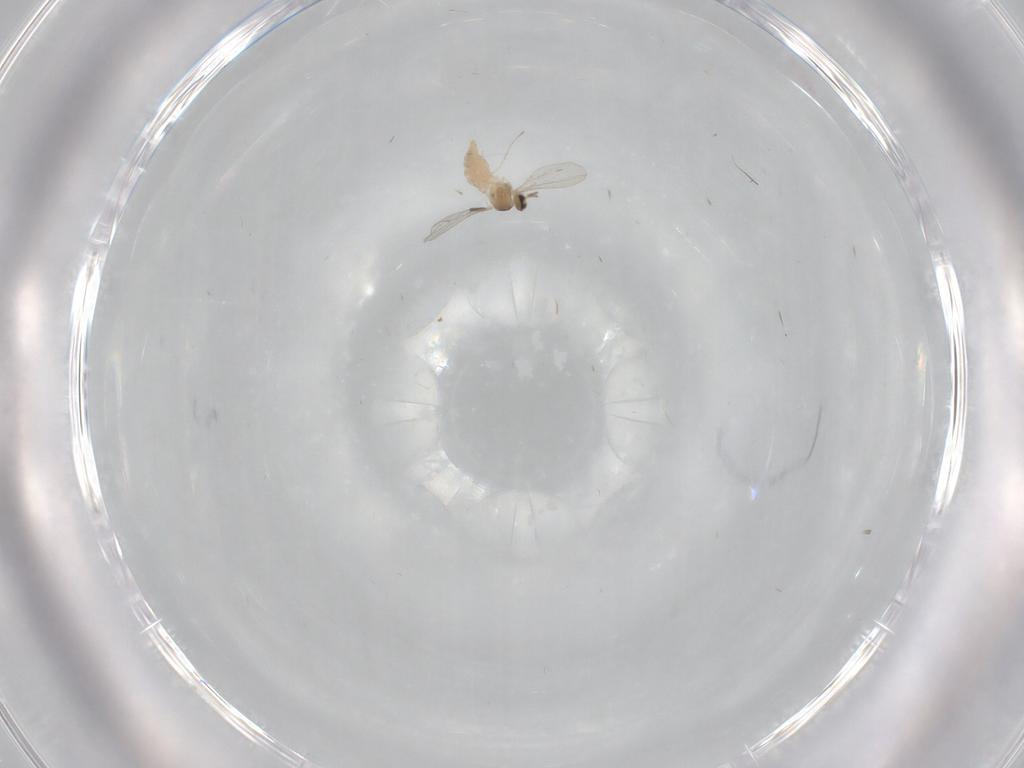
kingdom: Animalia
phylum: Arthropoda
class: Insecta
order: Diptera
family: Cecidomyiidae
